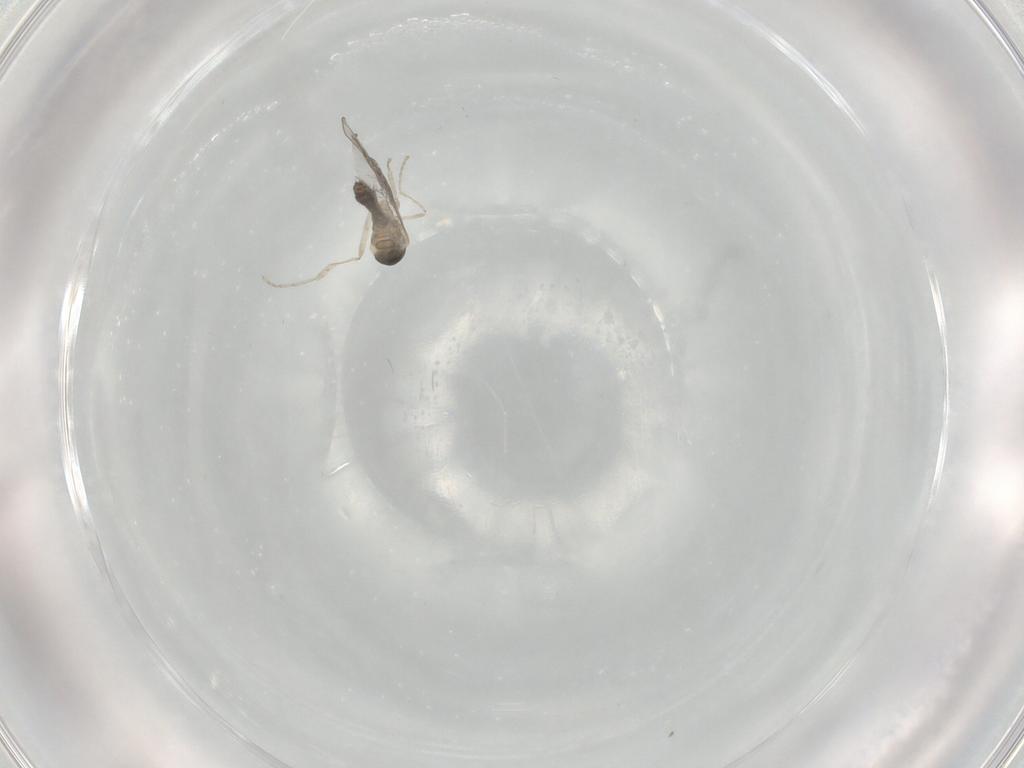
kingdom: Animalia
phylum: Arthropoda
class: Insecta
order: Diptera
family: Cecidomyiidae
